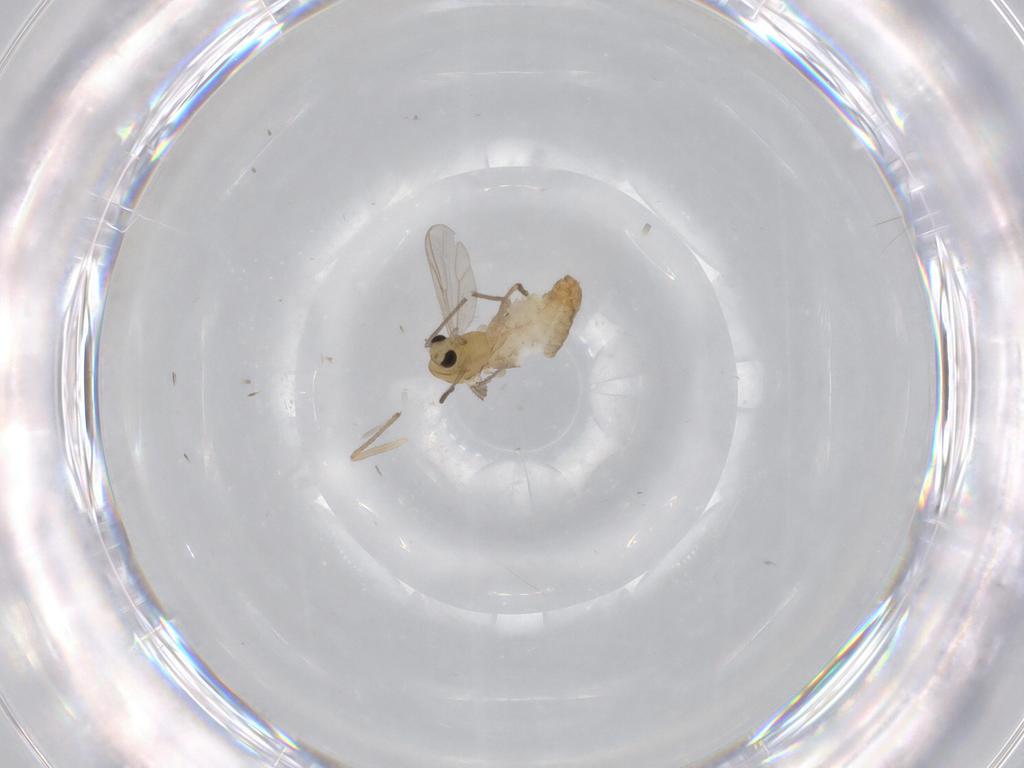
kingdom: Animalia
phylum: Arthropoda
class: Insecta
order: Diptera
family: Chironomidae
